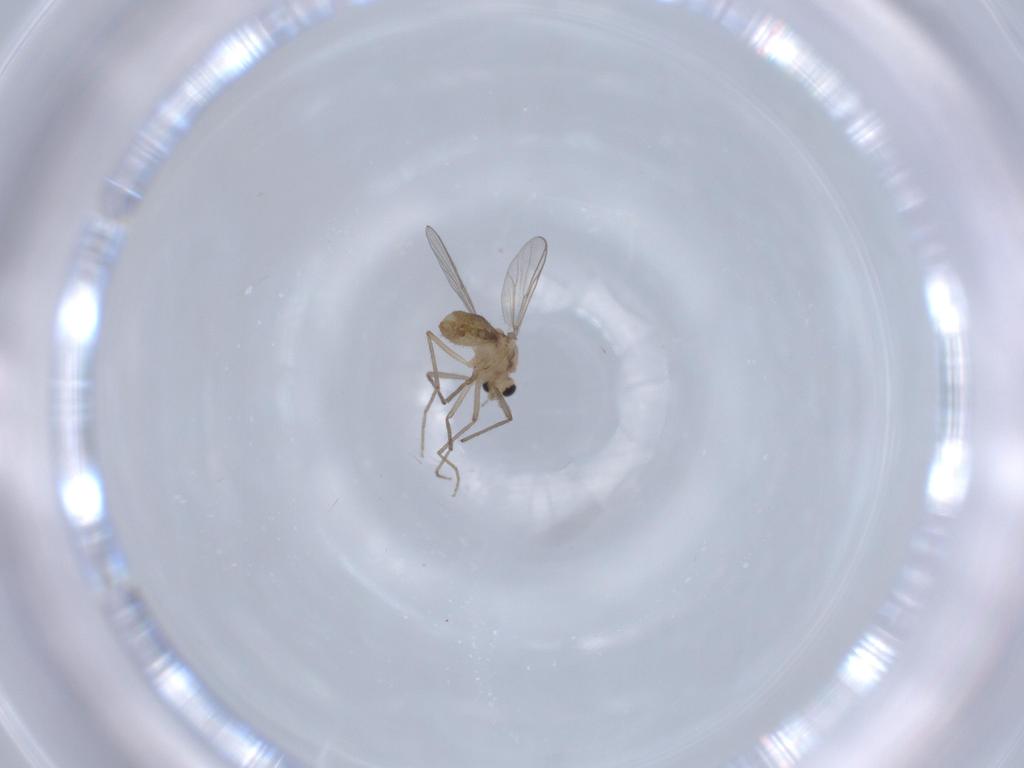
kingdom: Animalia
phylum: Arthropoda
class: Insecta
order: Diptera
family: Chironomidae
